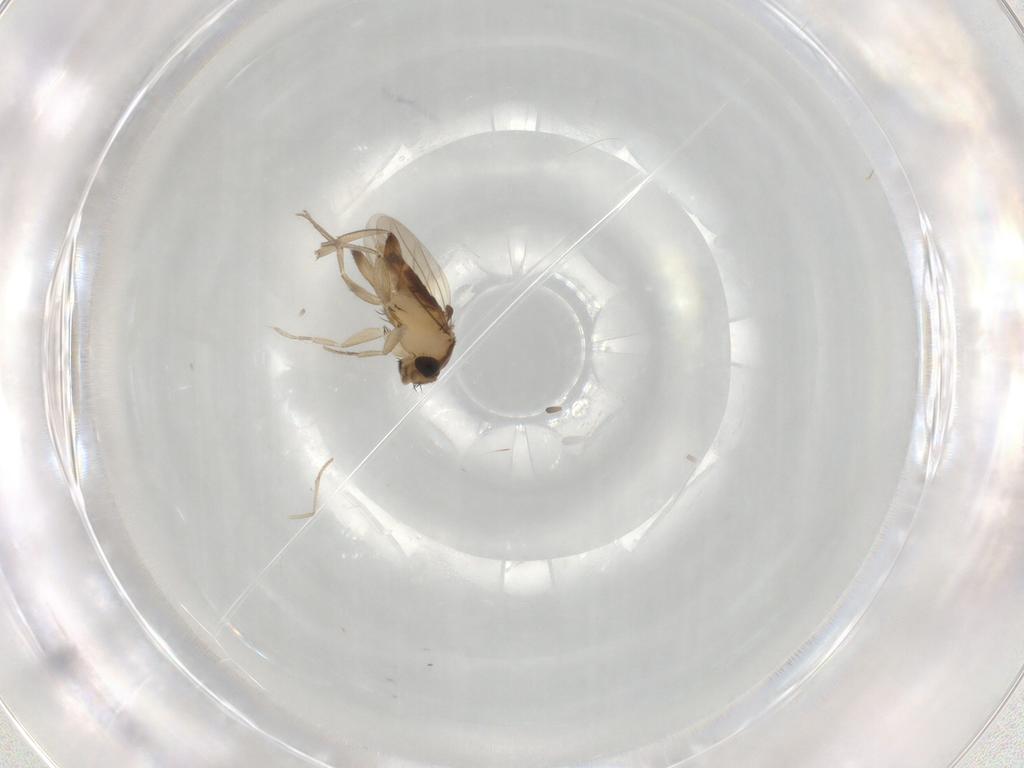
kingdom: Animalia
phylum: Arthropoda
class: Insecta
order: Diptera
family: Phoridae
